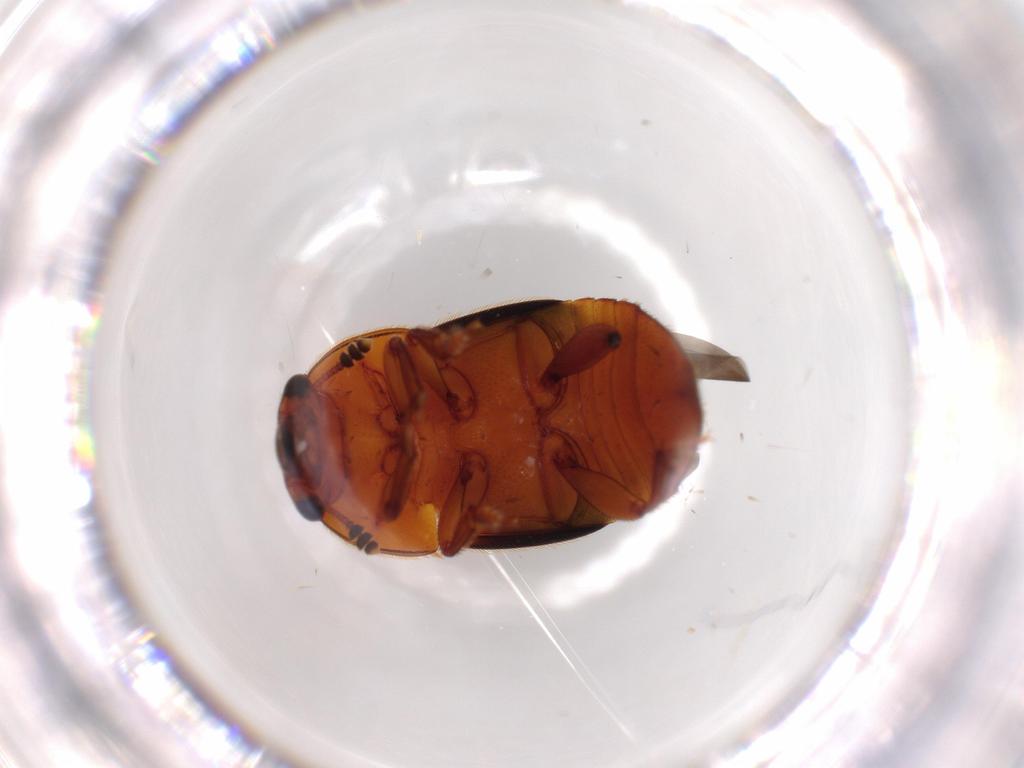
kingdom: Animalia
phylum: Arthropoda
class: Insecta
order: Coleoptera
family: Nitidulidae
